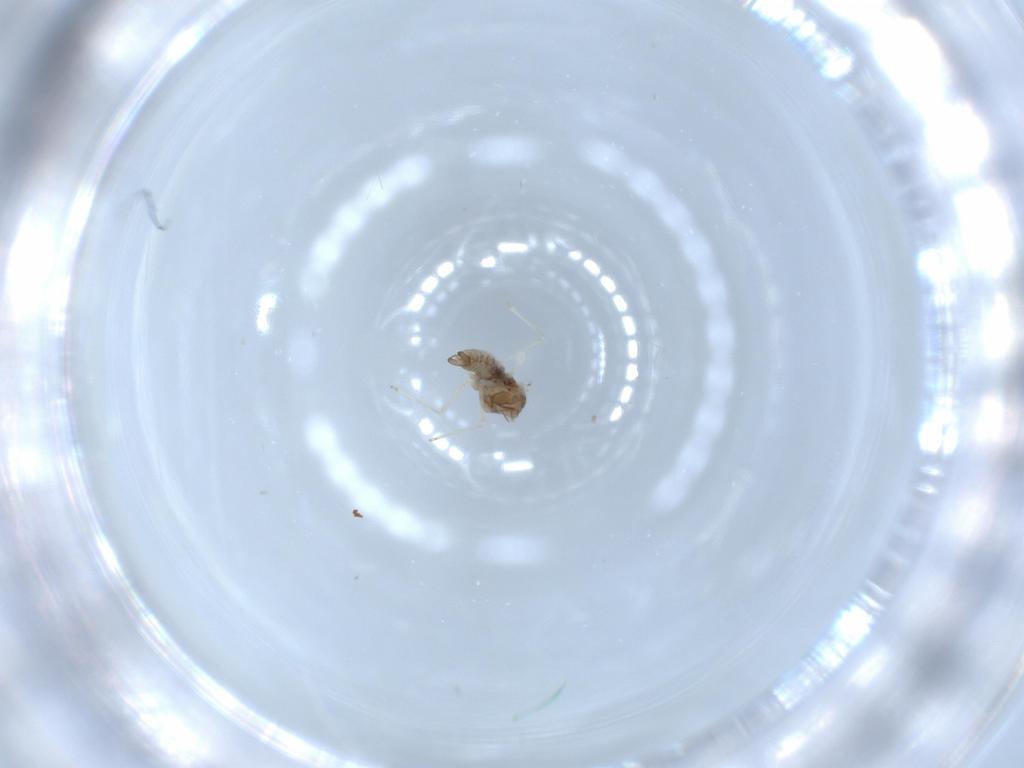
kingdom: Animalia
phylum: Arthropoda
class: Insecta
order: Diptera
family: Cecidomyiidae
